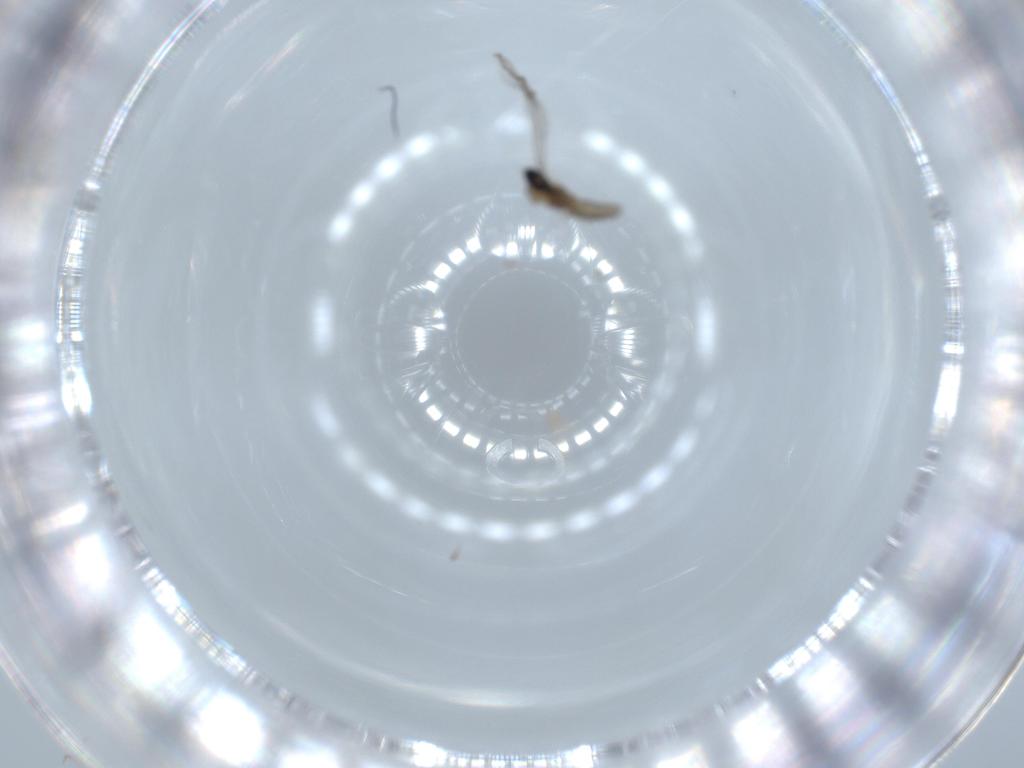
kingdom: Animalia
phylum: Arthropoda
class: Insecta
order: Diptera
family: Cecidomyiidae
